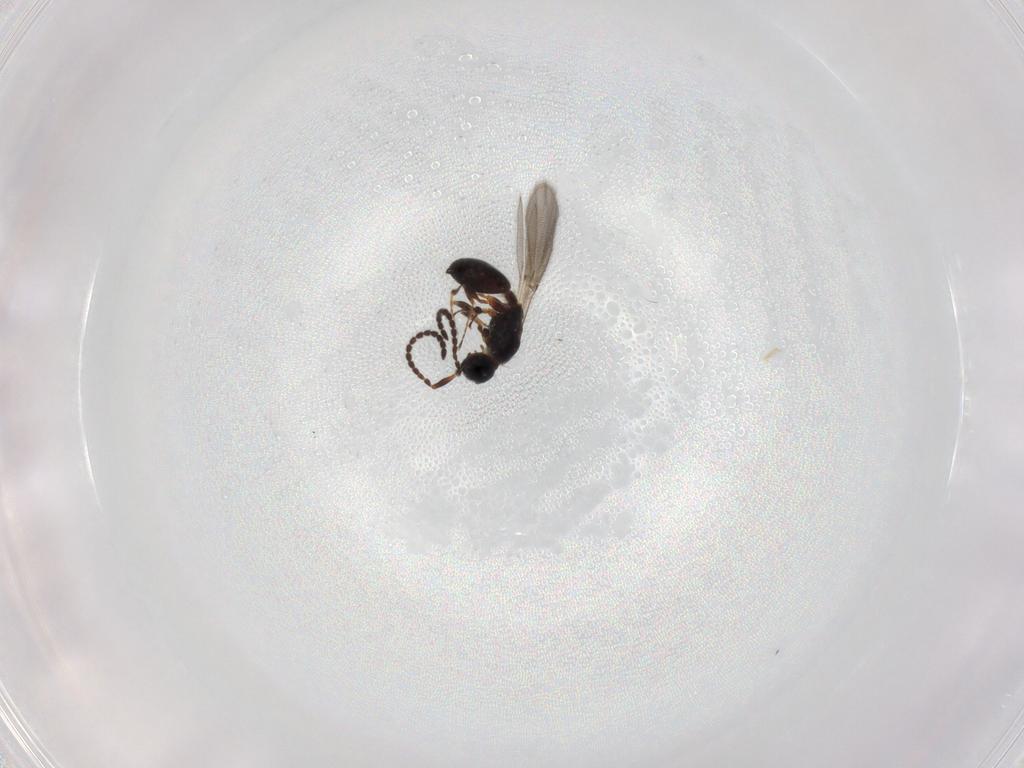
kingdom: Animalia
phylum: Arthropoda
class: Insecta
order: Hymenoptera
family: Diapriidae
